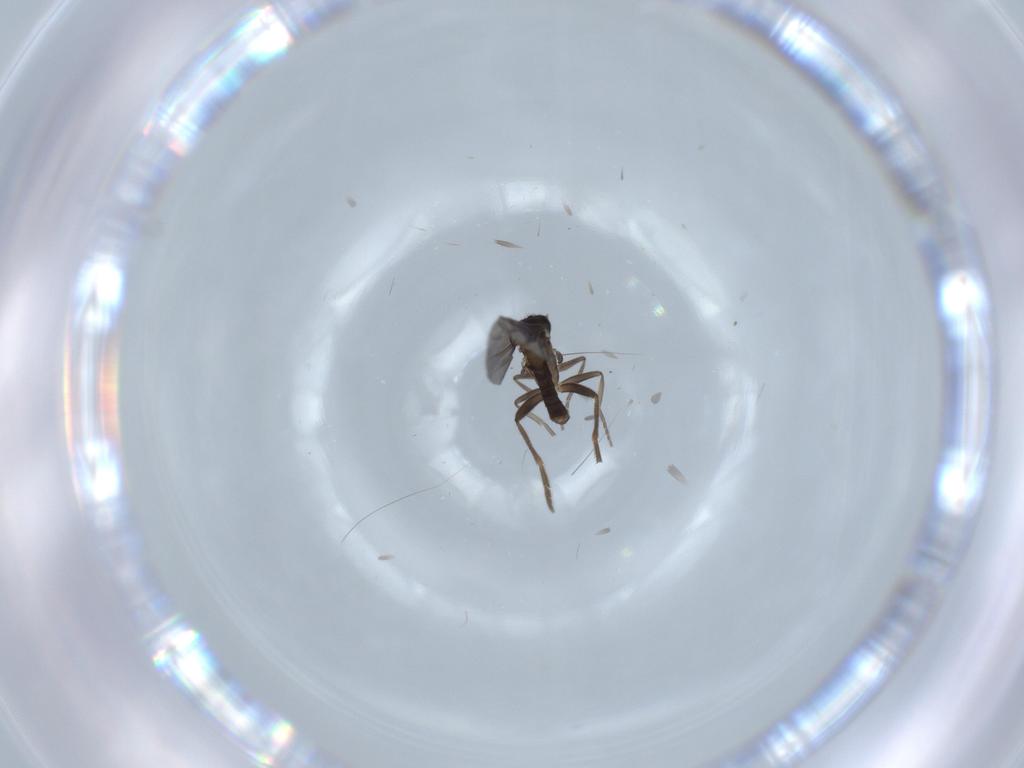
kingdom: Animalia
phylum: Arthropoda
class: Insecta
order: Diptera
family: Phoridae
